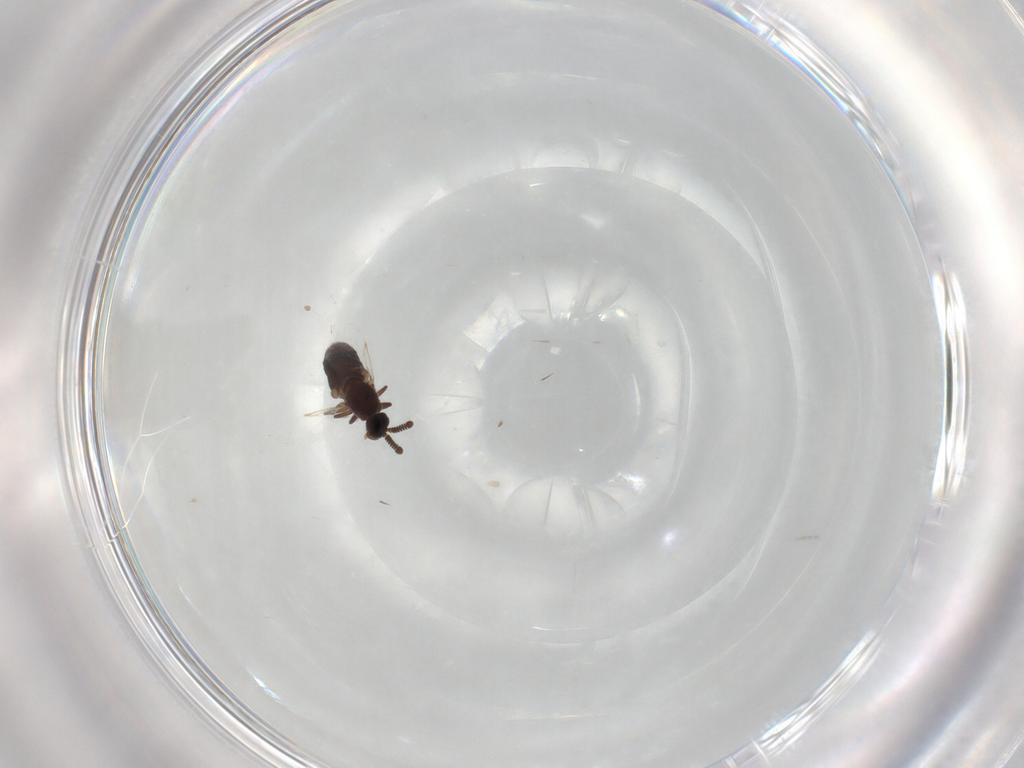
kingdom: Animalia
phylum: Arthropoda
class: Insecta
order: Diptera
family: Scatopsidae
